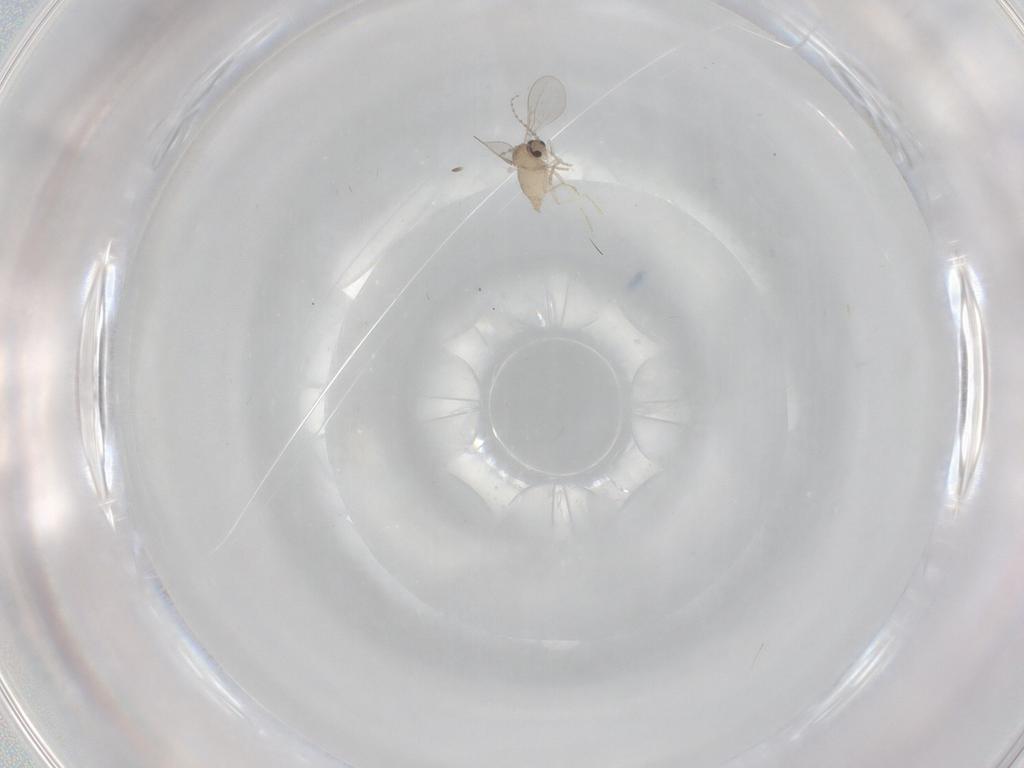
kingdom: Animalia
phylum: Arthropoda
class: Insecta
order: Diptera
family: Cecidomyiidae
